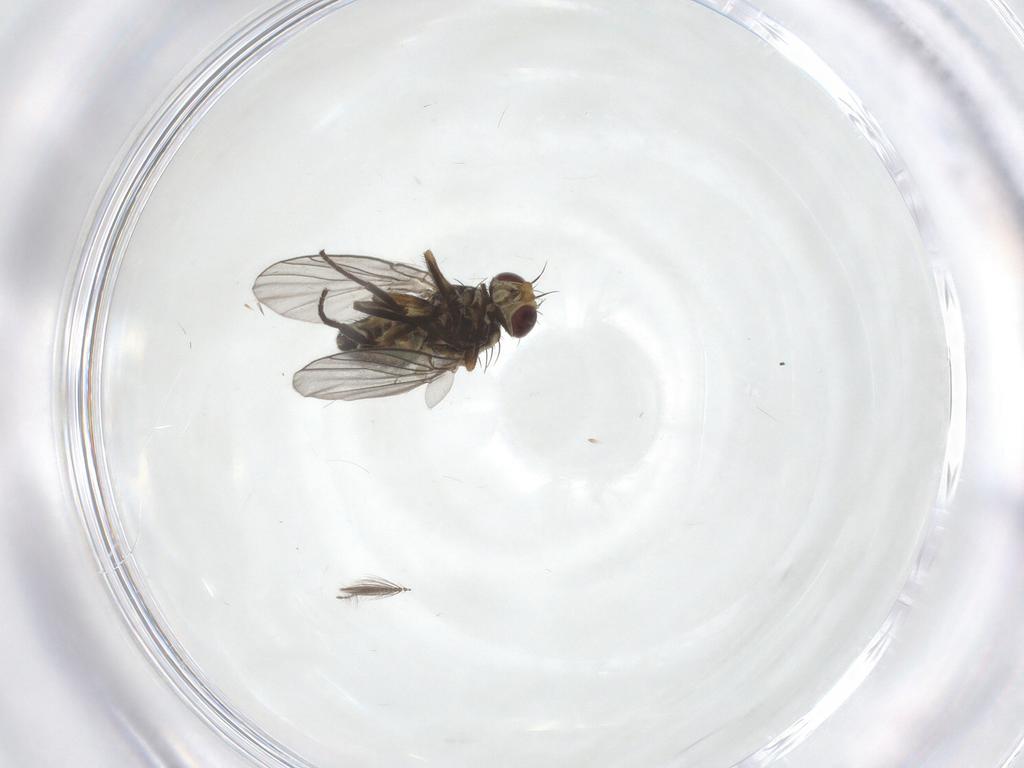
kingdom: Animalia
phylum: Arthropoda
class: Insecta
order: Diptera
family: Agromyzidae
